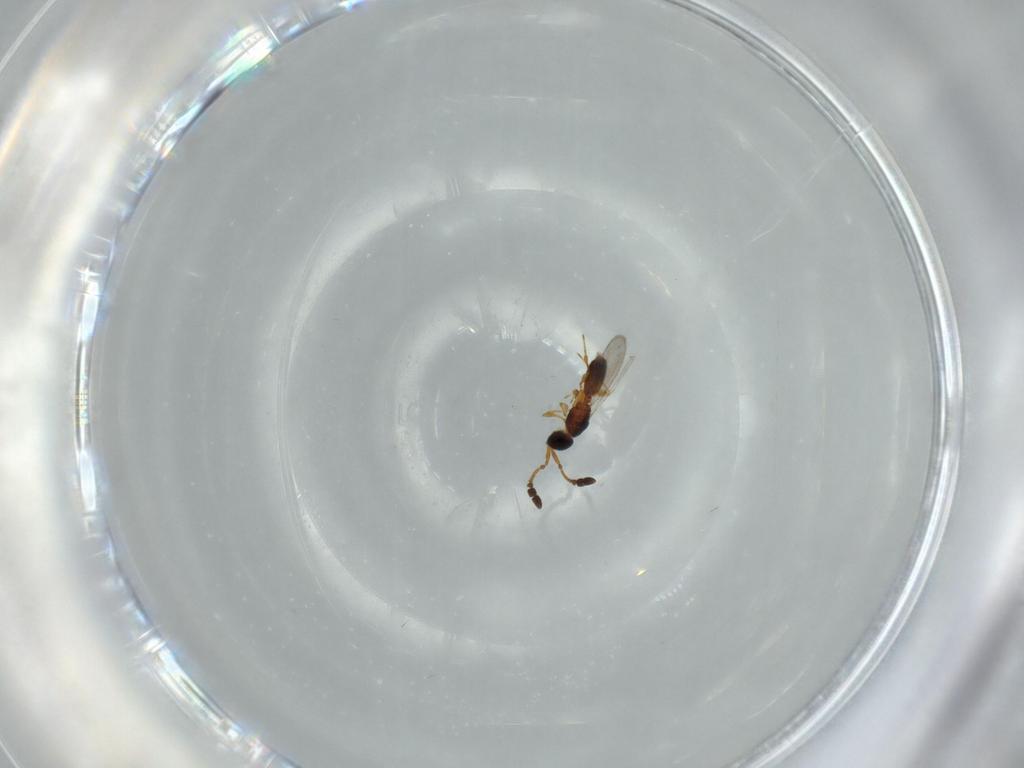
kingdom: Animalia
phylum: Arthropoda
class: Insecta
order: Hymenoptera
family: Diapriidae
